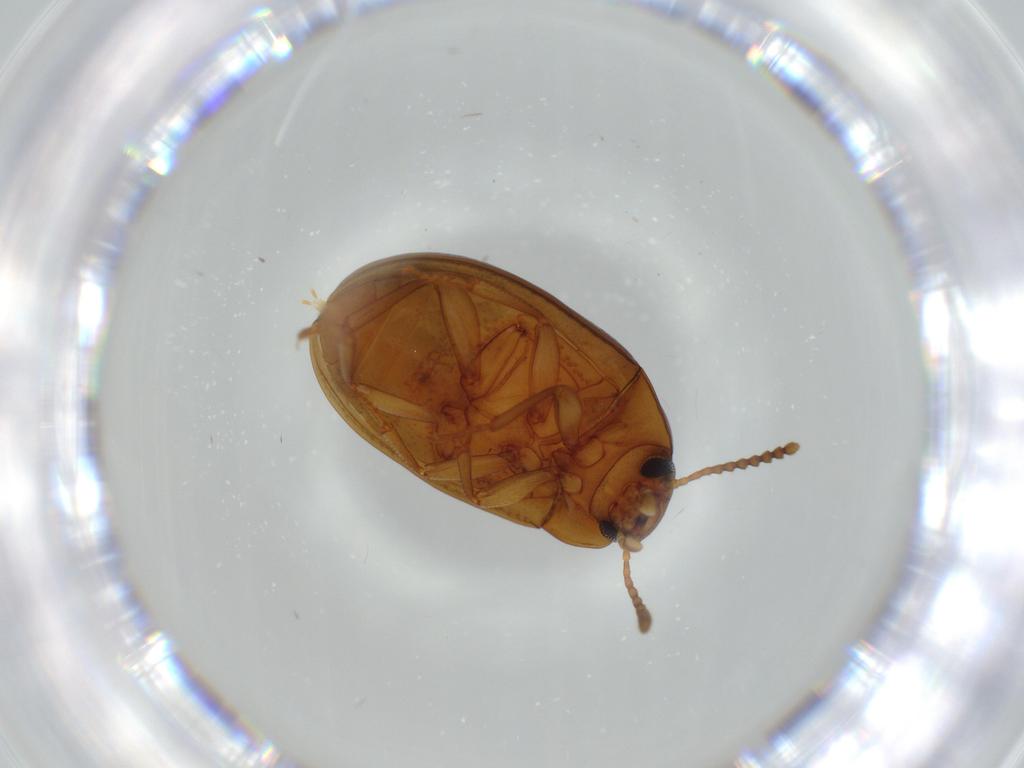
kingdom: Animalia
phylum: Arthropoda
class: Insecta
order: Coleoptera
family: Tenebrionidae
